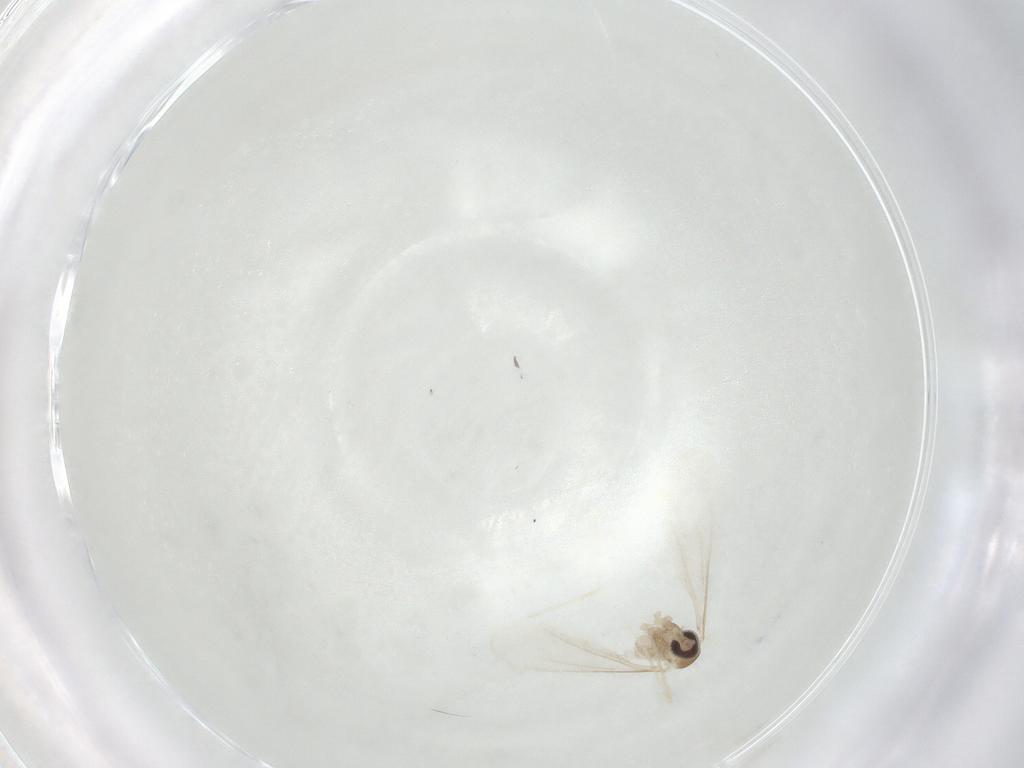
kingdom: Animalia
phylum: Arthropoda
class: Insecta
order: Diptera
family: Cecidomyiidae
